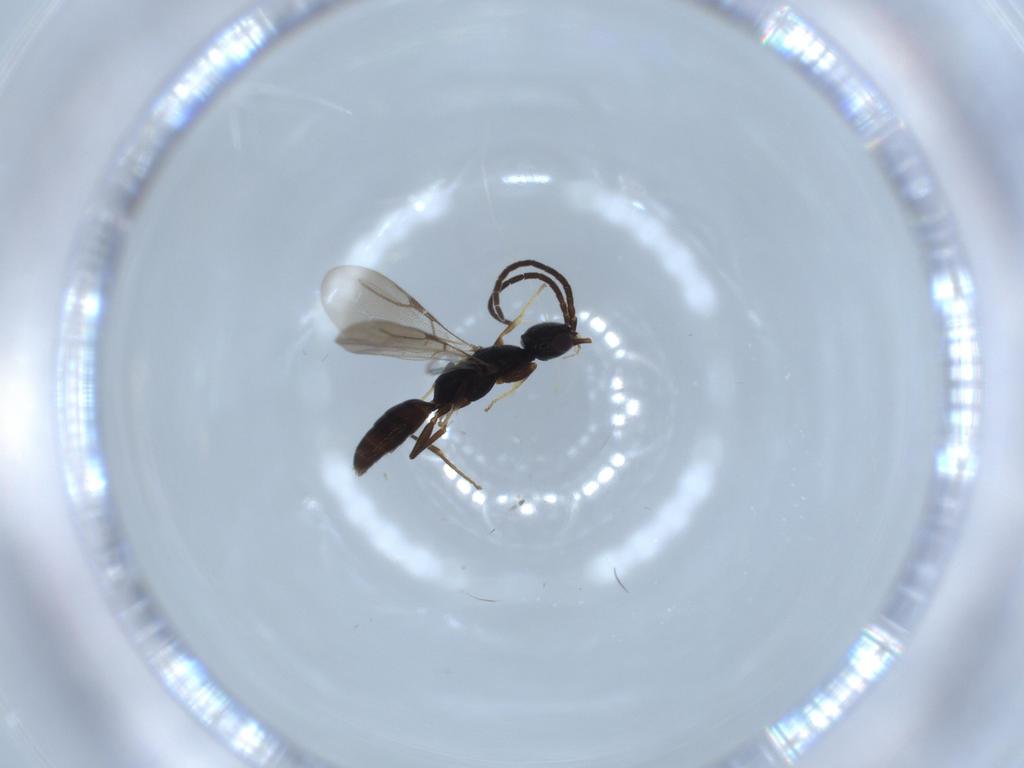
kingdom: Animalia
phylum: Arthropoda
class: Insecta
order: Hymenoptera
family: Bethylidae
